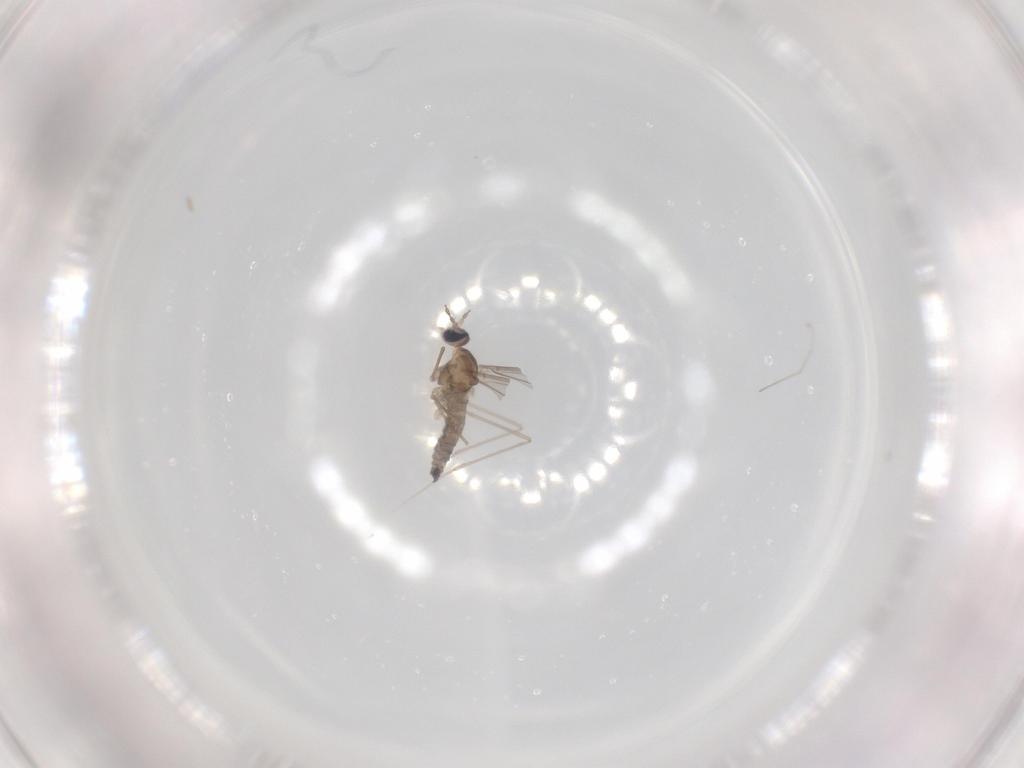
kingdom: Animalia
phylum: Arthropoda
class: Insecta
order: Diptera
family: Cecidomyiidae
